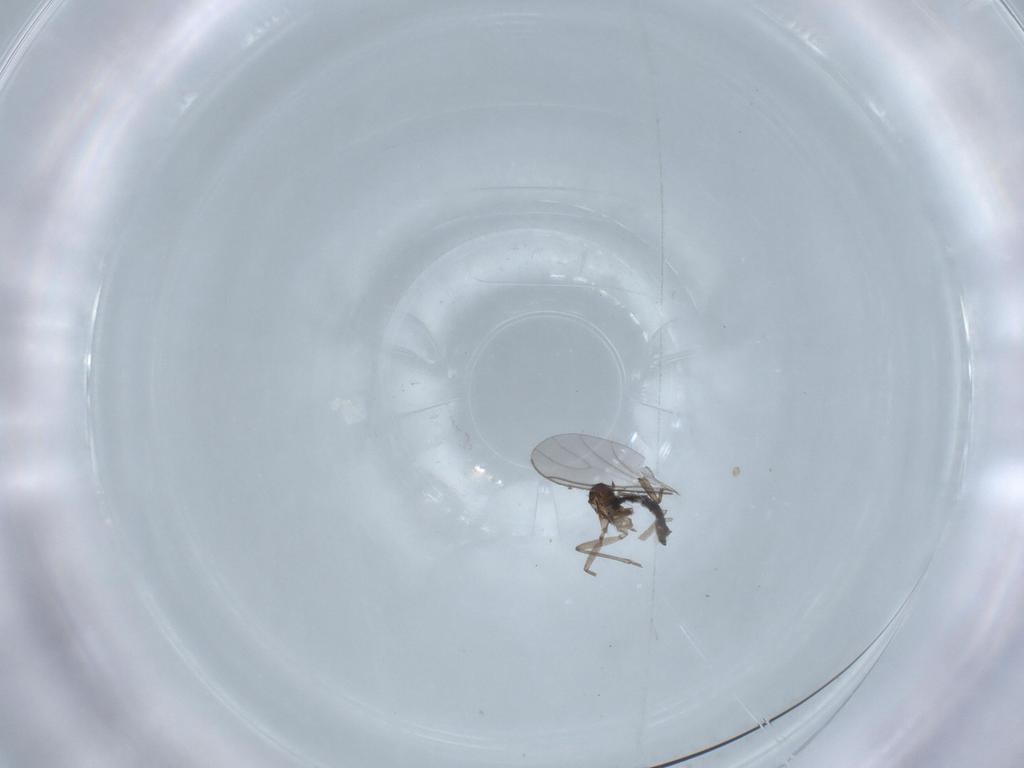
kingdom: Animalia
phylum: Arthropoda
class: Insecta
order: Diptera
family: Sciaridae
